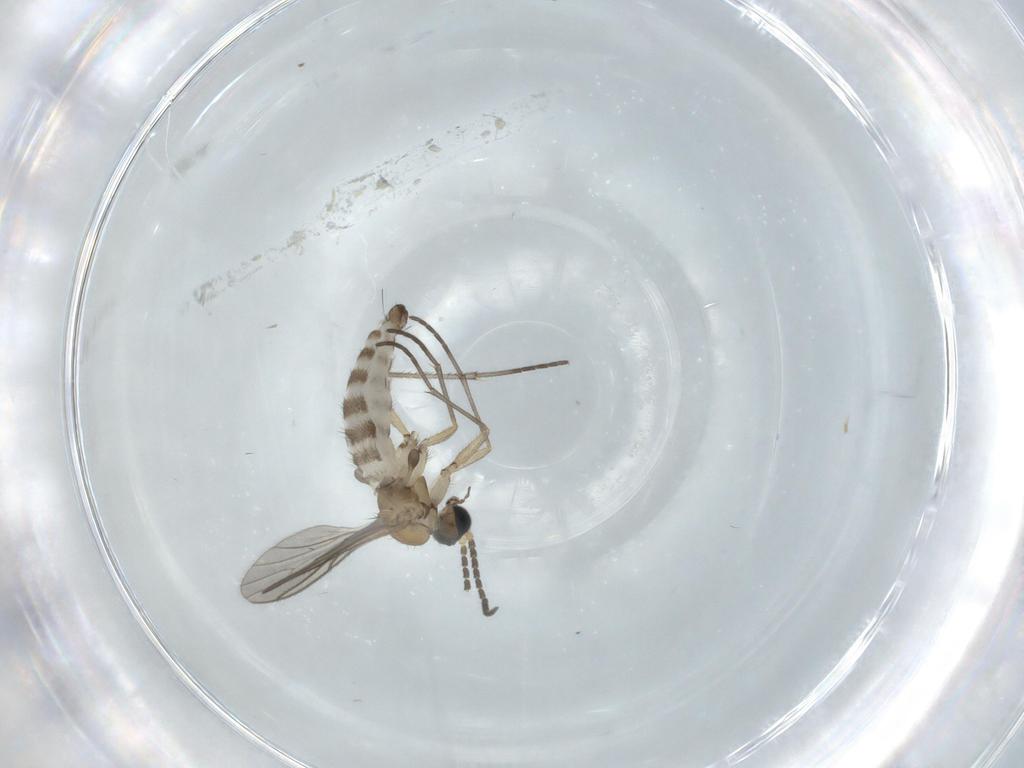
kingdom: Animalia
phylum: Arthropoda
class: Insecta
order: Diptera
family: Sciaridae
